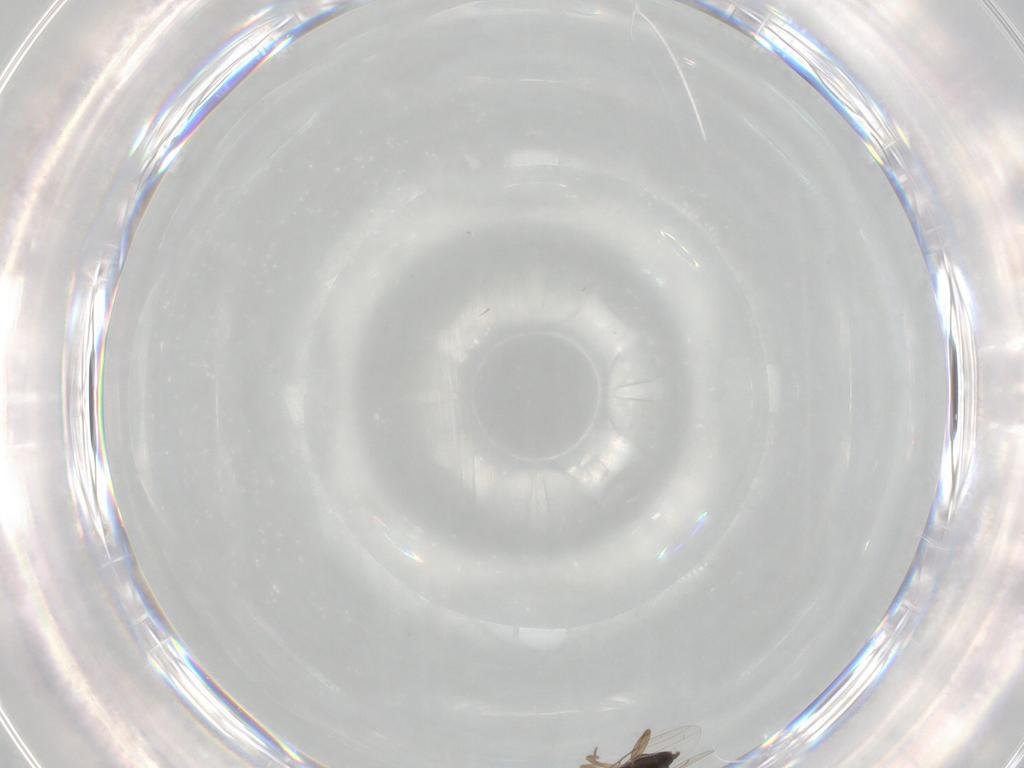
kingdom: Animalia
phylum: Arthropoda
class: Insecta
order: Diptera
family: Phoridae
